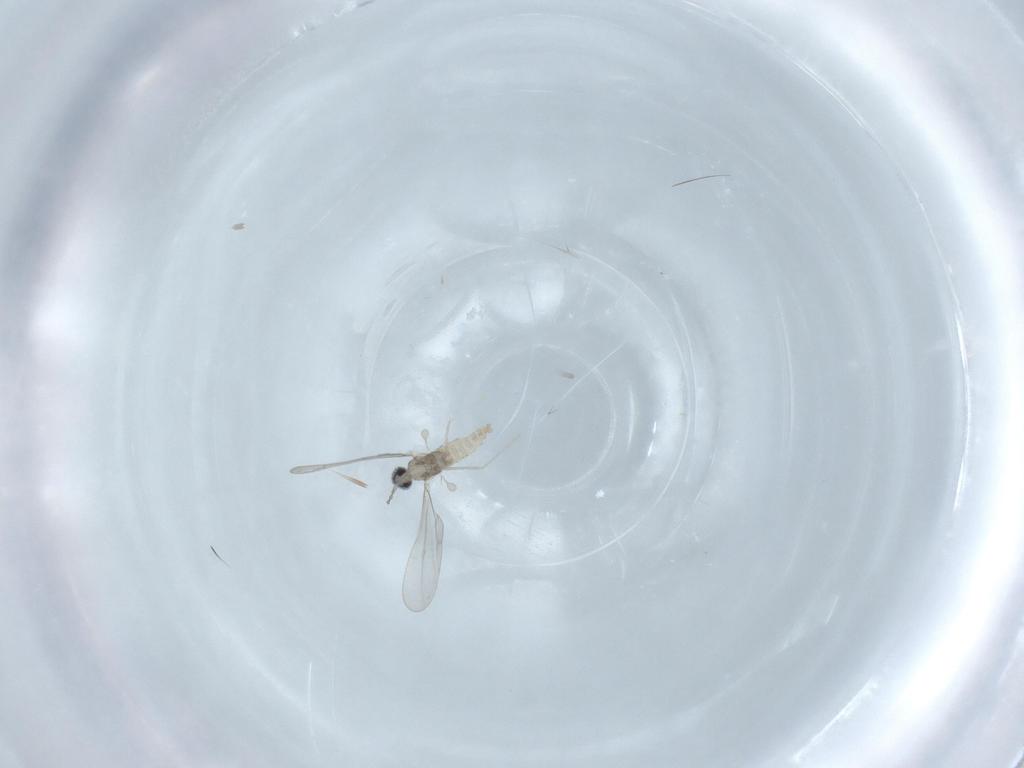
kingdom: Animalia
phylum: Arthropoda
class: Insecta
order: Diptera
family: Cecidomyiidae
